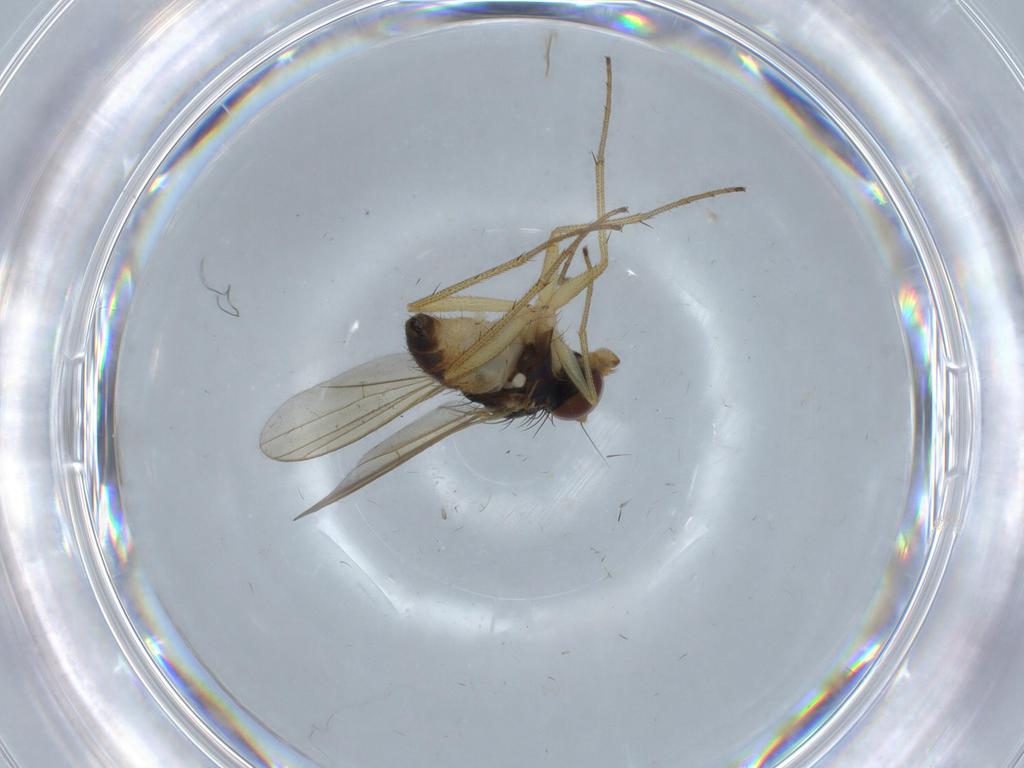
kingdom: Animalia
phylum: Arthropoda
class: Insecta
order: Diptera
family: Dolichopodidae
